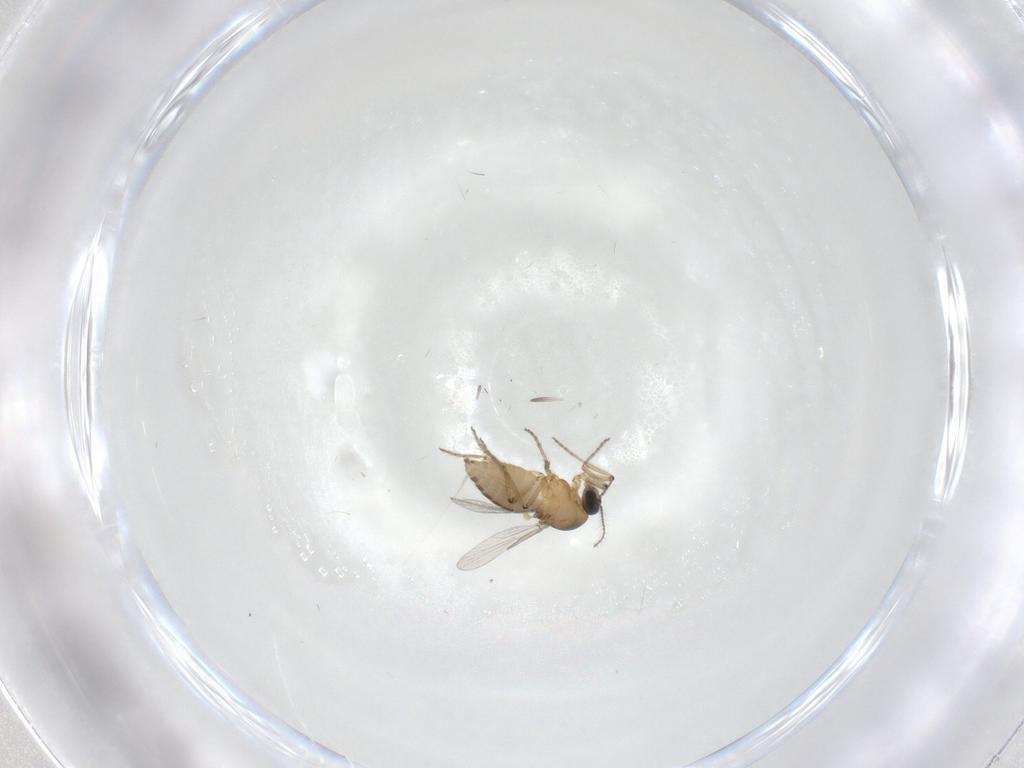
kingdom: Animalia
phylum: Arthropoda
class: Insecta
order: Diptera
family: Ceratopogonidae
